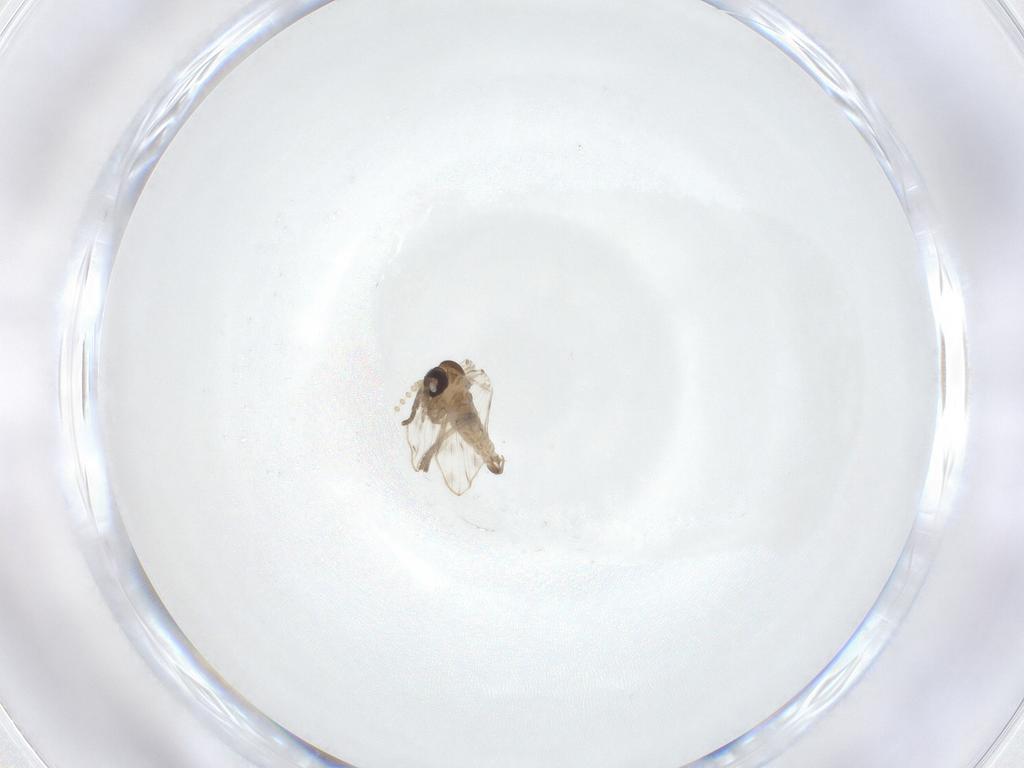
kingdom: Animalia
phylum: Arthropoda
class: Insecta
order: Diptera
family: Psychodidae
